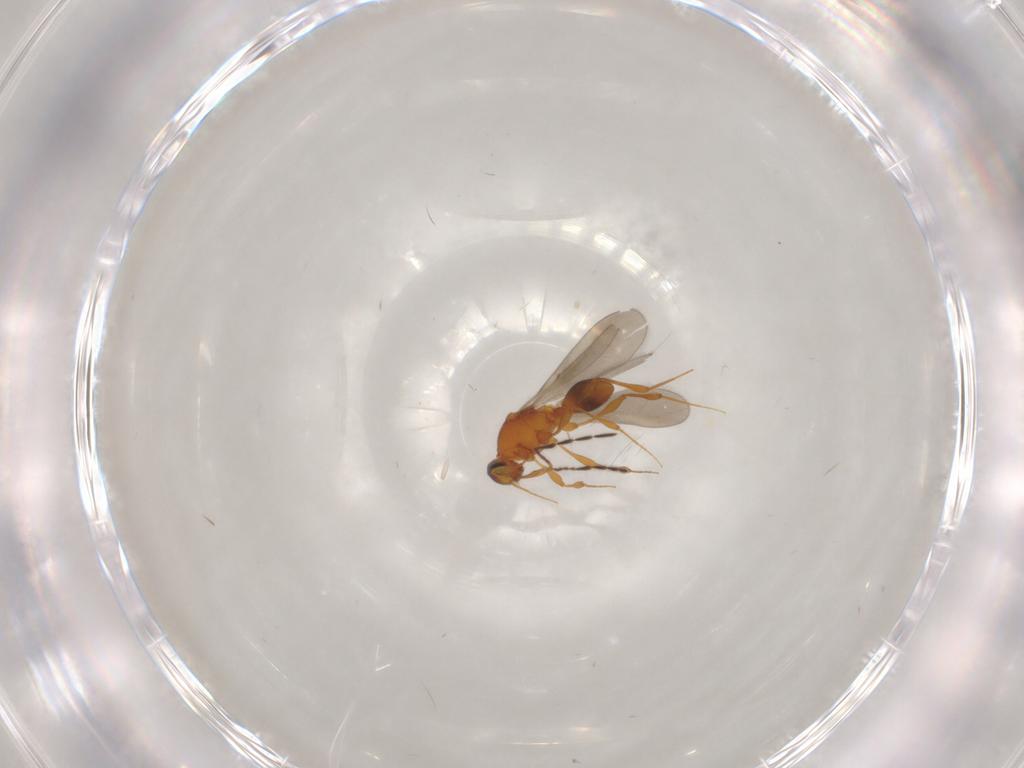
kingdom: Animalia
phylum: Arthropoda
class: Insecta
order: Hymenoptera
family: Platygastridae
